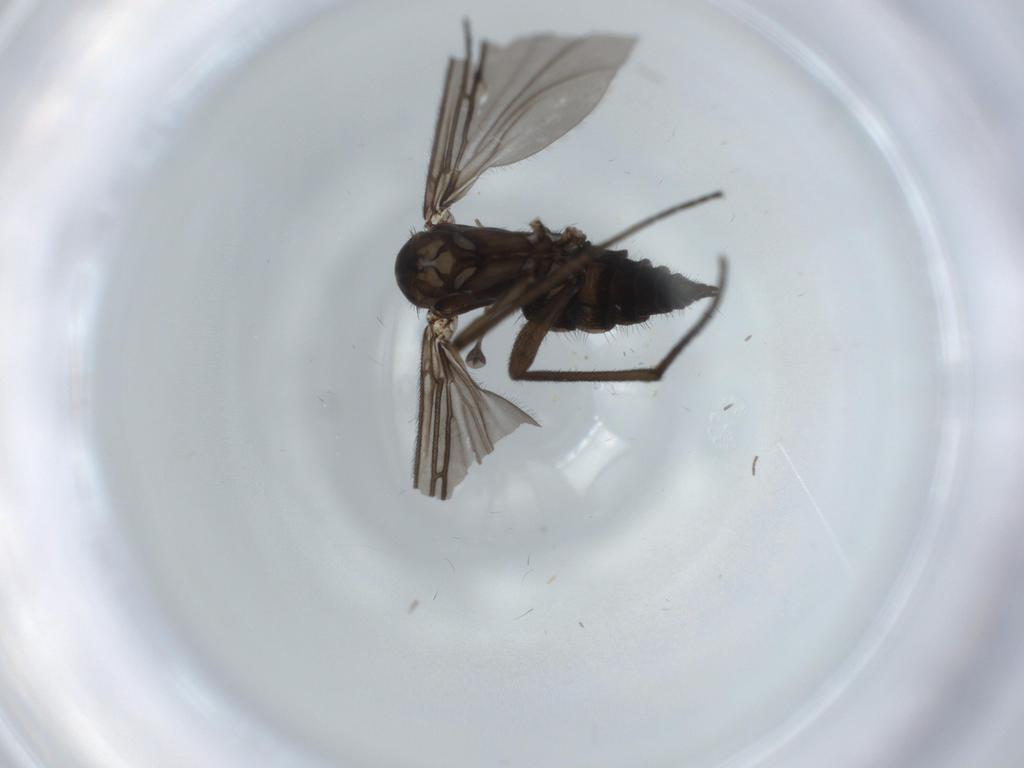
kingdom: Animalia
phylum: Arthropoda
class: Insecta
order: Diptera
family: Sciaridae
